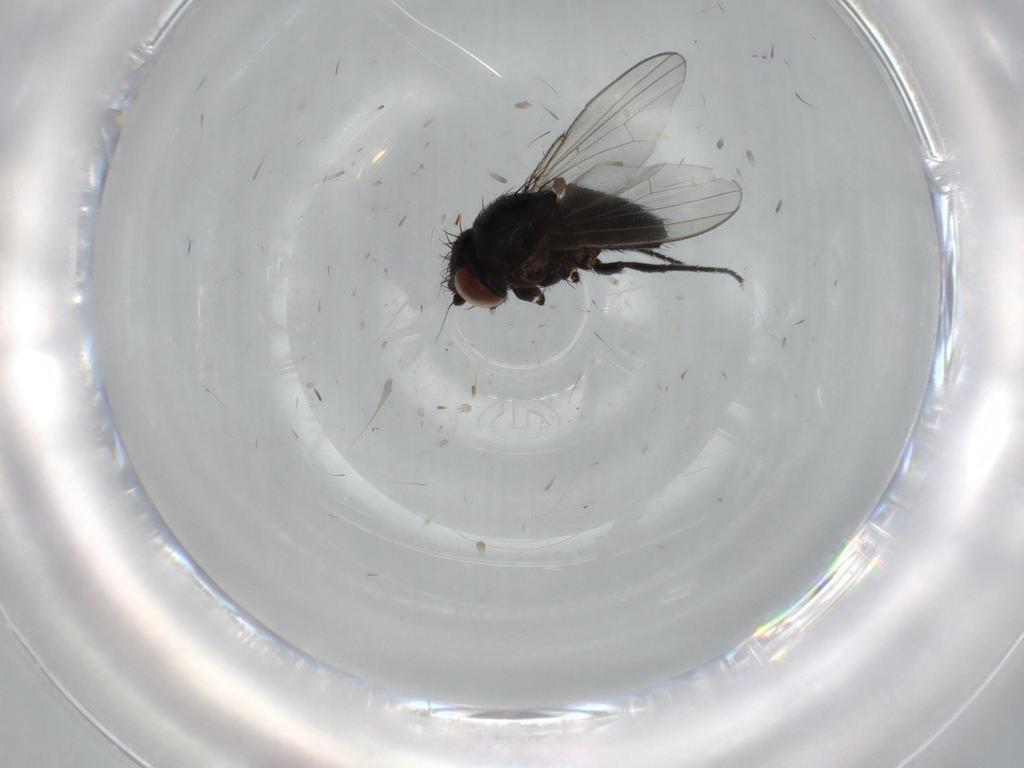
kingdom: Animalia
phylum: Arthropoda
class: Insecta
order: Diptera
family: Milichiidae
